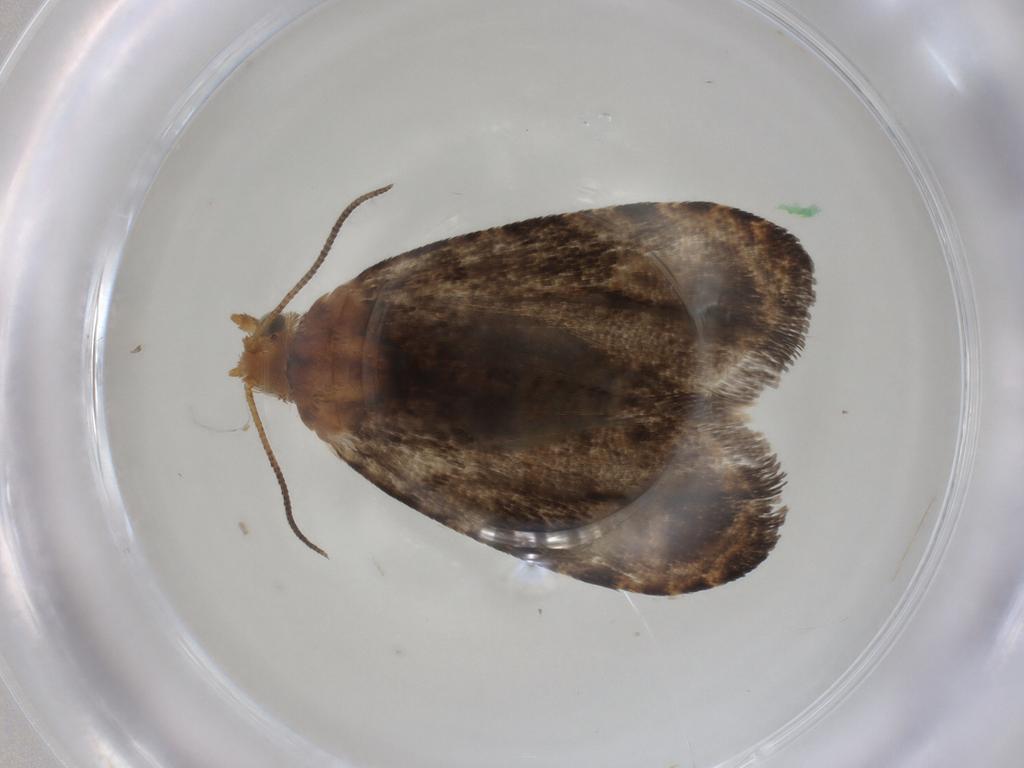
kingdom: Animalia
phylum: Arthropoda
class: Insecta
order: Lepidoptera
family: Tortricidae
